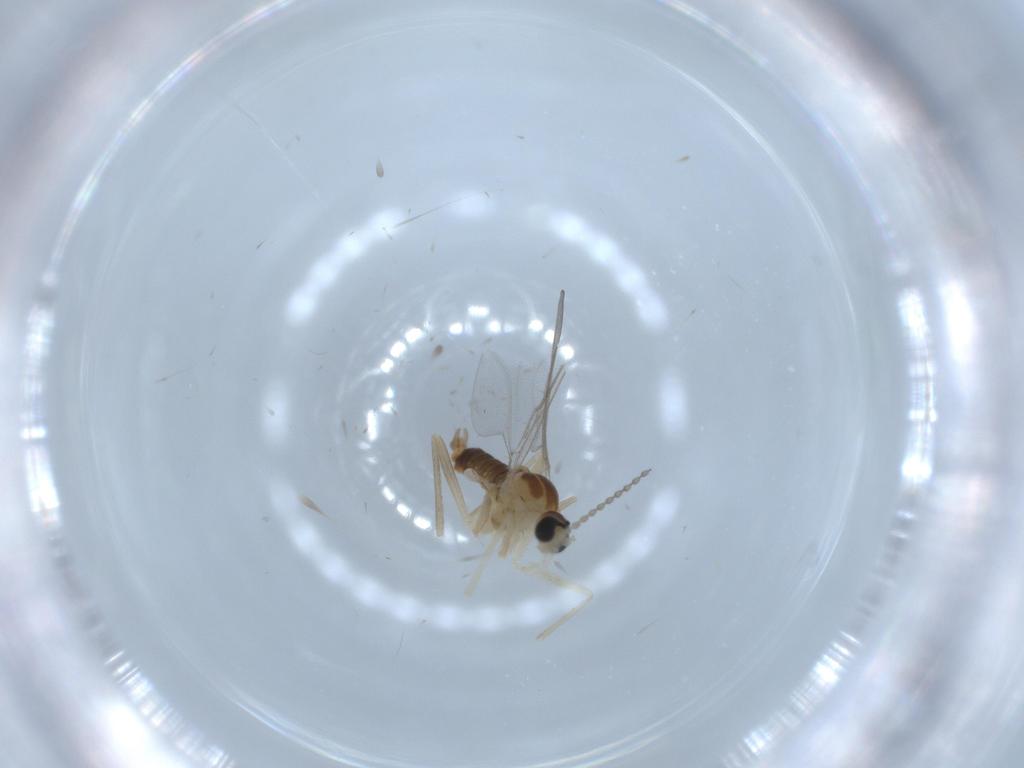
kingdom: Animalia
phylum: Arthropoda
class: Insecta
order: Diptera
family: Cecidomyiidae
